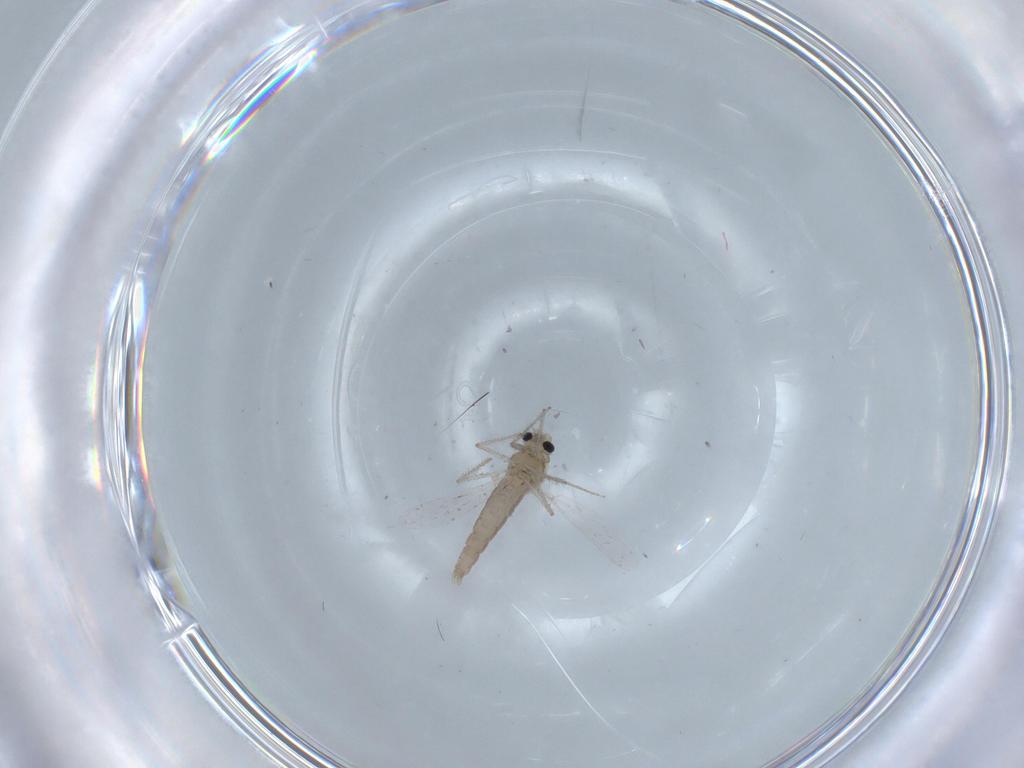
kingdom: Animalia
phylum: Arthropoda
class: Insecta
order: Diptera
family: Chironomidae
